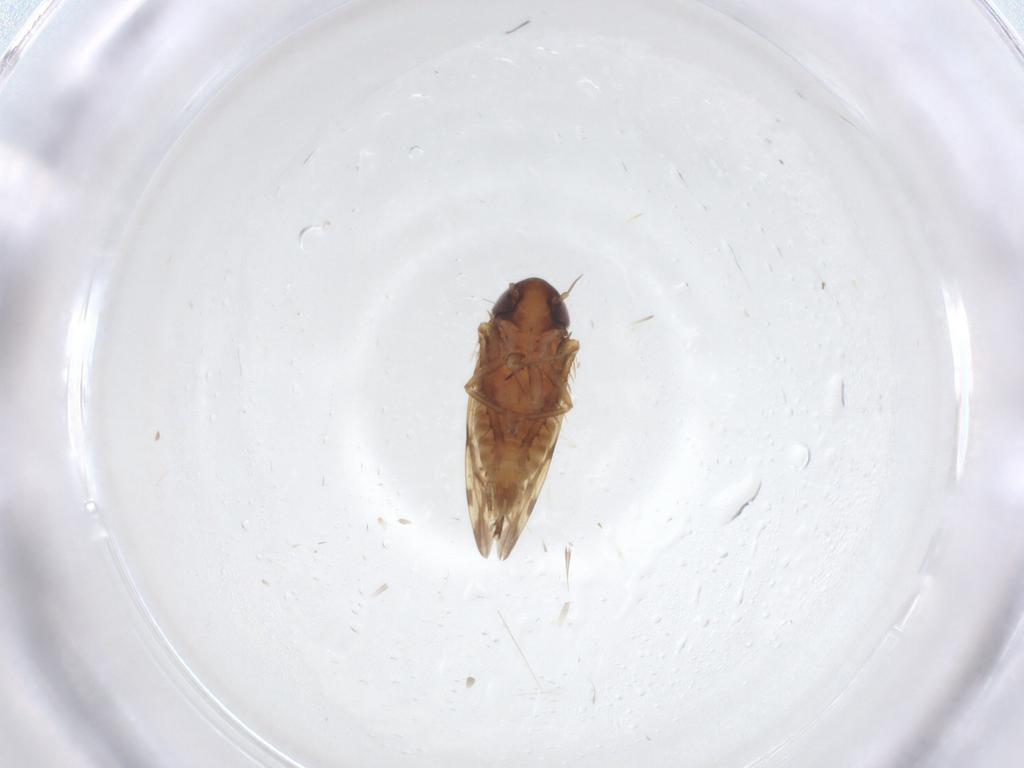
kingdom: Animalia
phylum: Arthropoda
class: Insecta
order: Hemiptera
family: Cicadellidae
